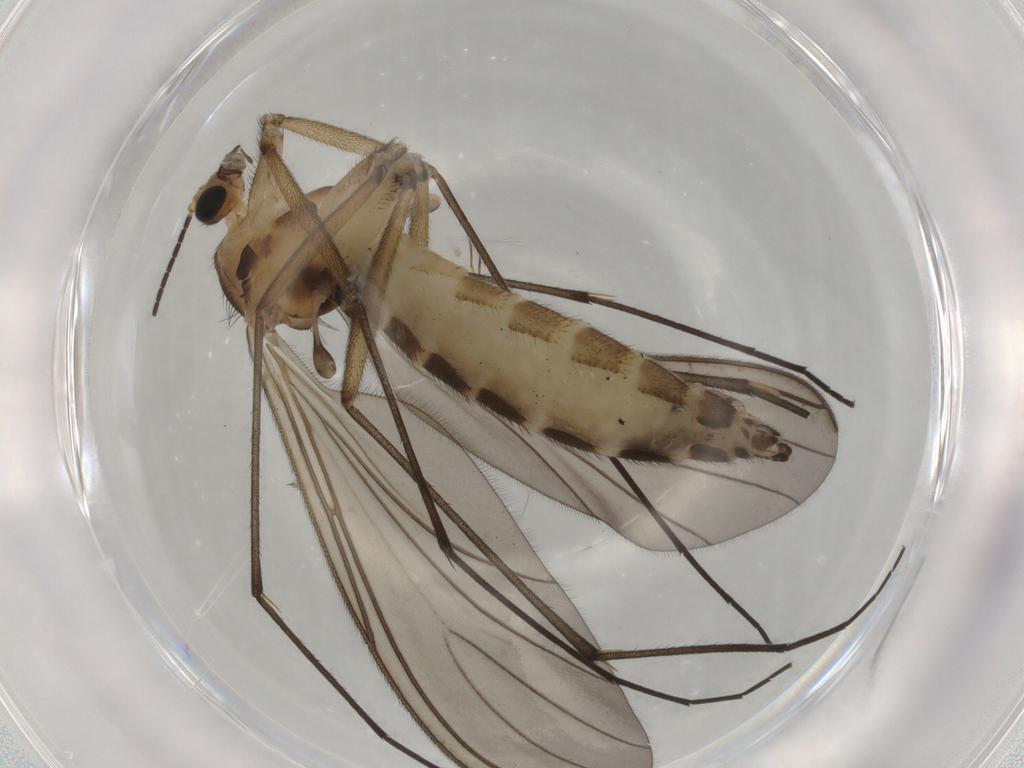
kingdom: Animalia
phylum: Arthropoda
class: Insecta
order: Diptera
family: Sciaridae
